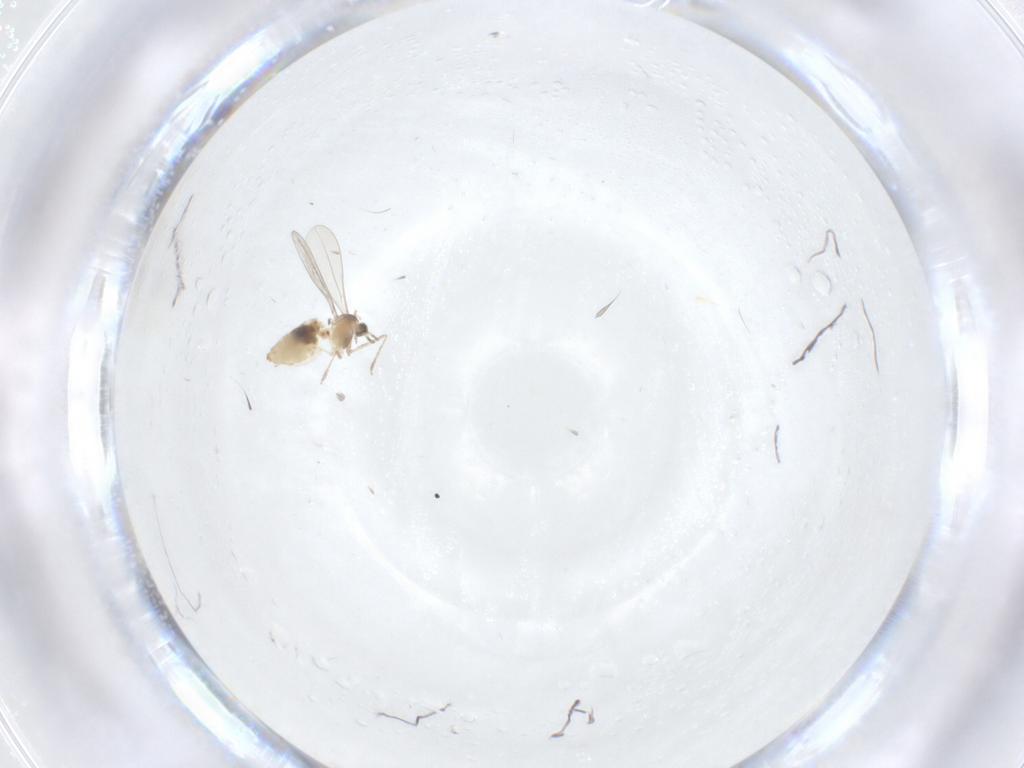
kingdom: Animalia
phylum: Arthropoda
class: Insecta
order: Diptera
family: Cecidomyiidae
